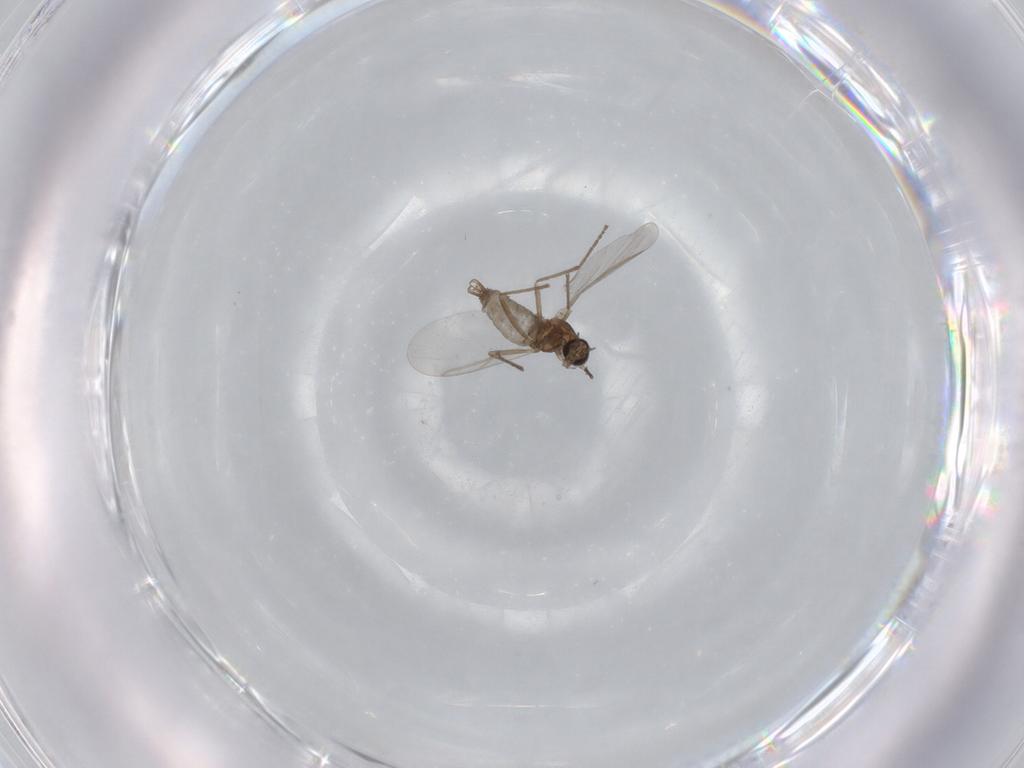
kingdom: Animalia
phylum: Arthropoda
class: Insecta
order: Diptera
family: Cecidomyiidae
